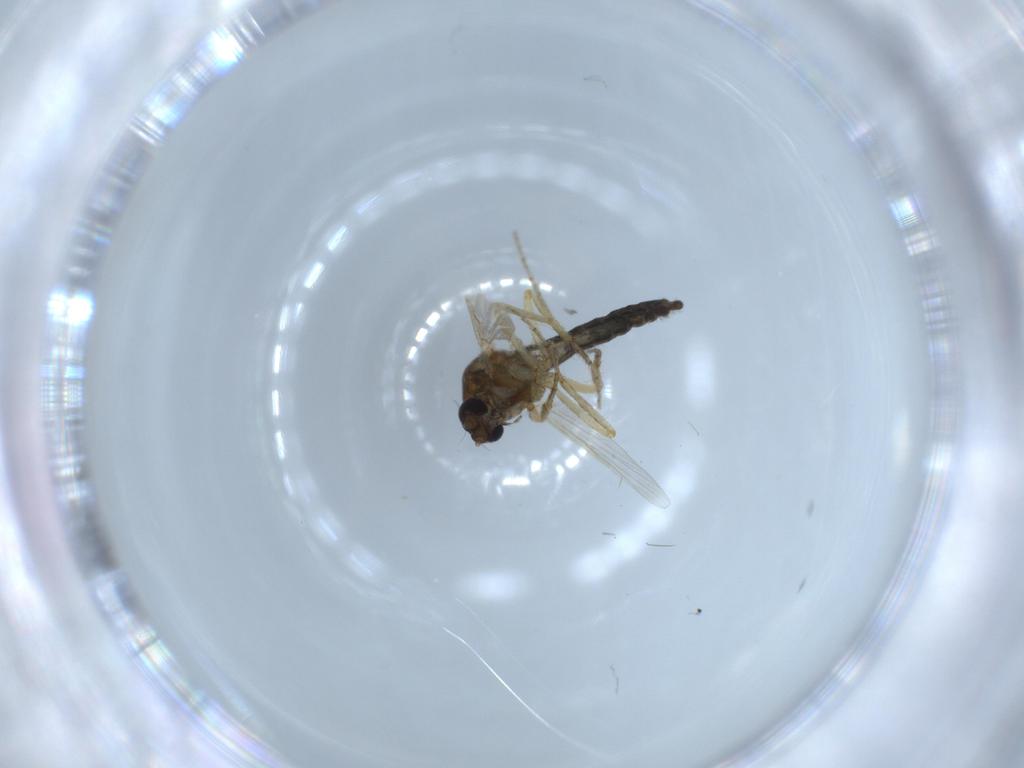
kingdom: Animalia
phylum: Arthropoda
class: Insecta
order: Diptera
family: Ceratopogonidae
